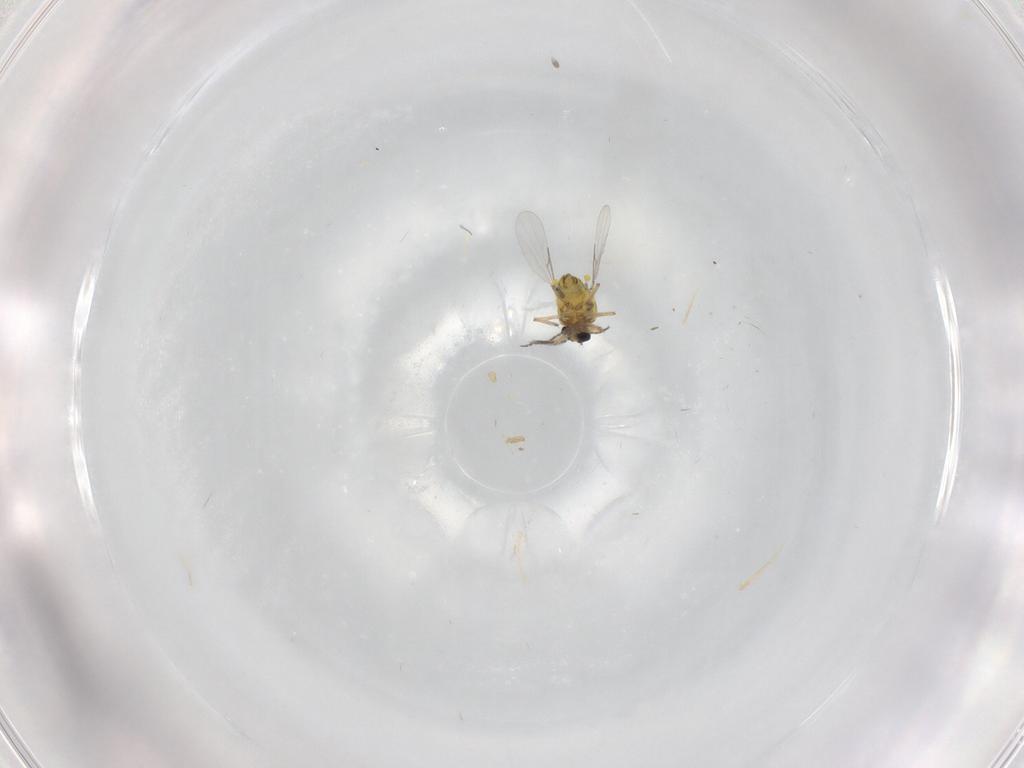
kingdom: Animalia
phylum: Arthropoda
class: Insecta
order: Diptera
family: Ceratopogonidae
